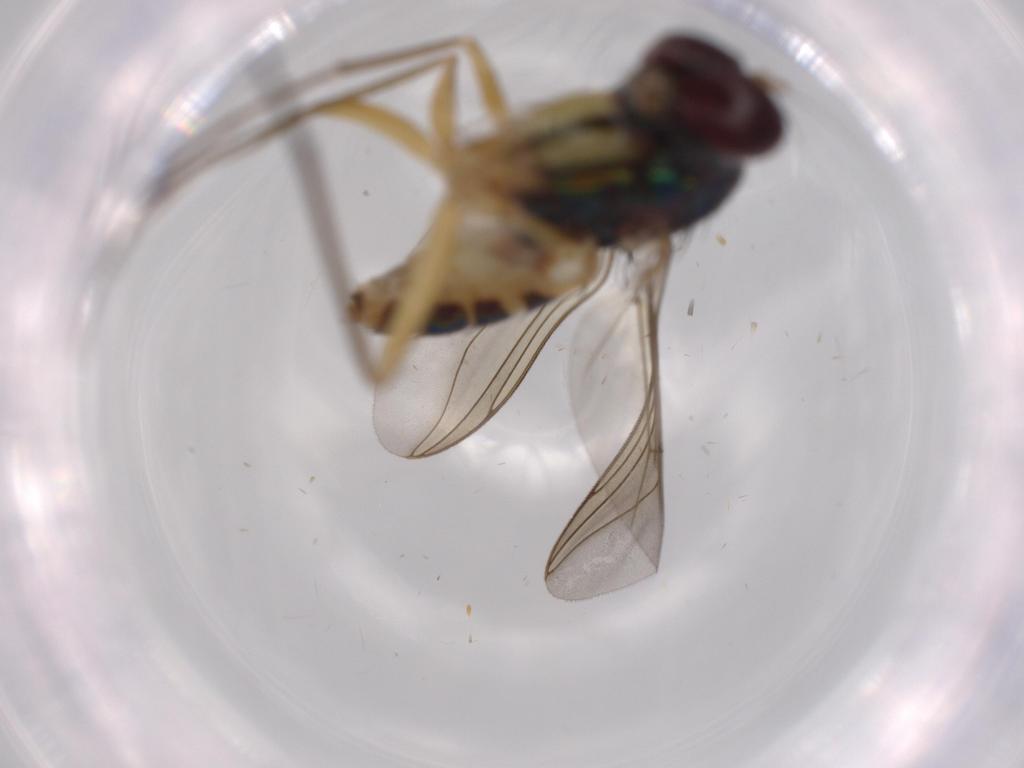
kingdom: Animalia
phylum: Arthropoda
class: Insecta
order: Diptera
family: Dolichopodidae
